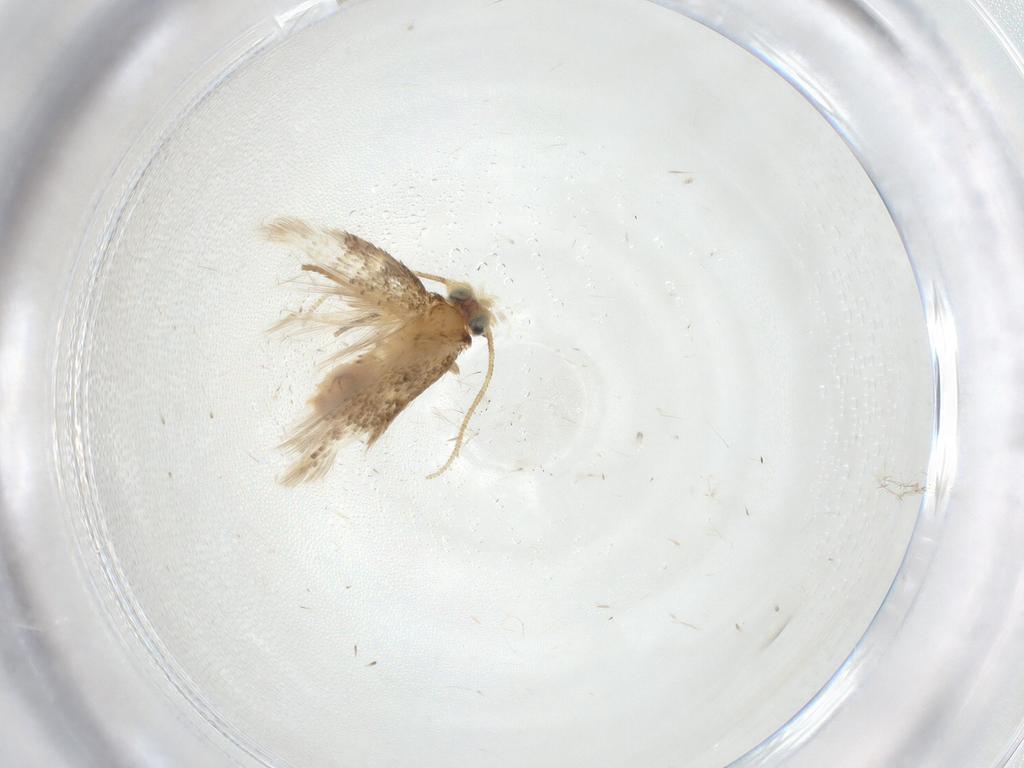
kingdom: Animalia
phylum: Arthropoda
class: Insecta
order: Lepidoptera
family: Nepticulidae
